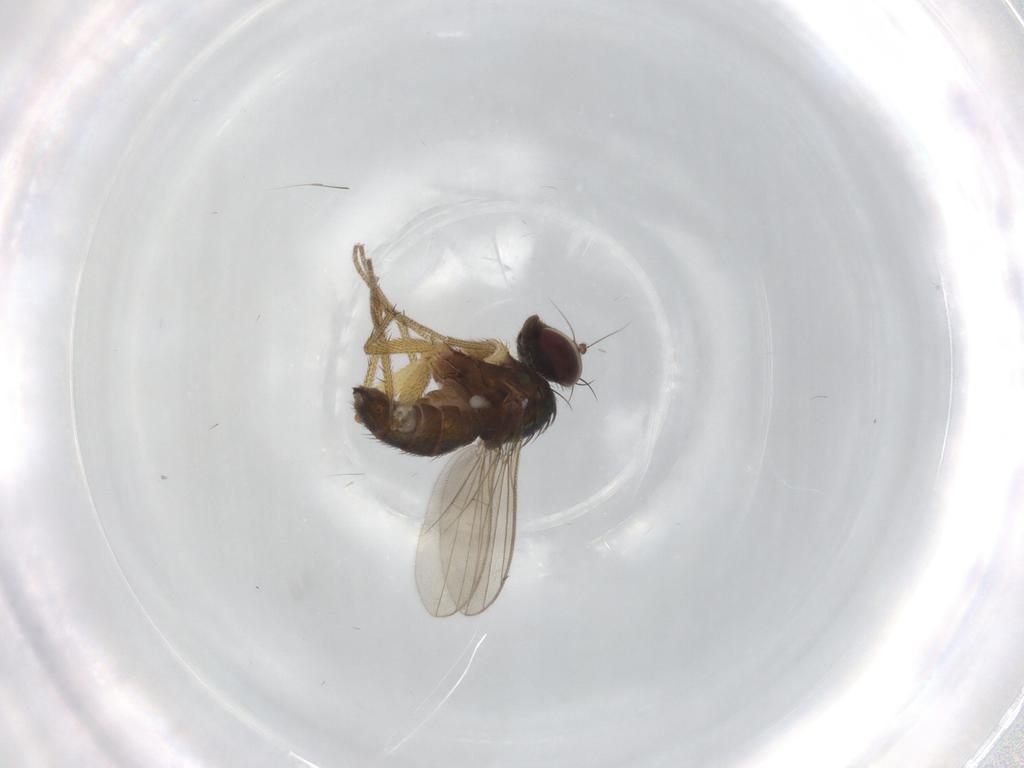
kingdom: Animalia
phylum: Arthropoda
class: Insecta
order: Diptera
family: Dolichopodidae
